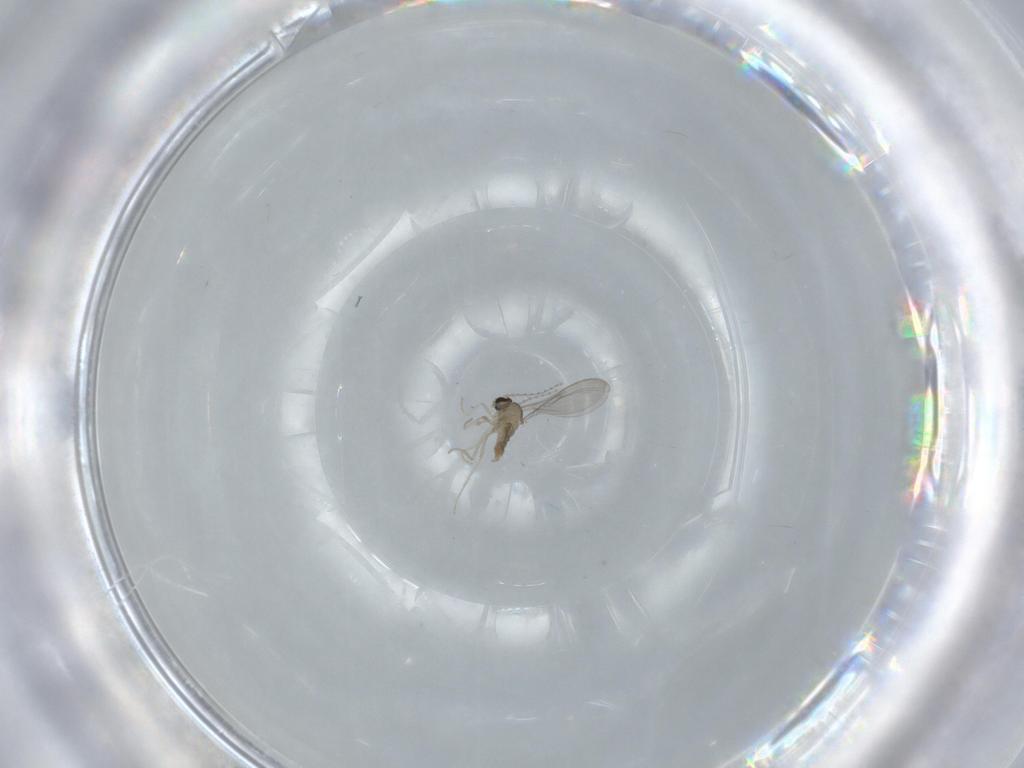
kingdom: Animalia
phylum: Arthropoda
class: Insecta
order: Diptera
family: Cecidomyiidae
